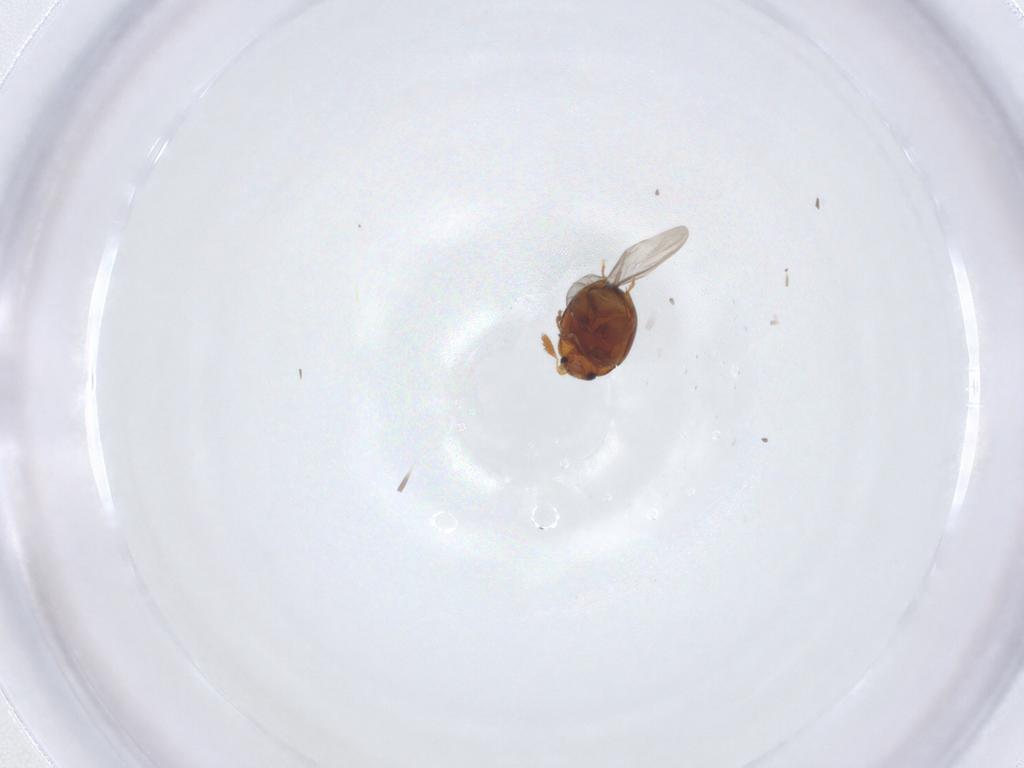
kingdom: Animalia
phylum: Arthropoda
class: Insecta
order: Coleoptera
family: Chrysomelidae
